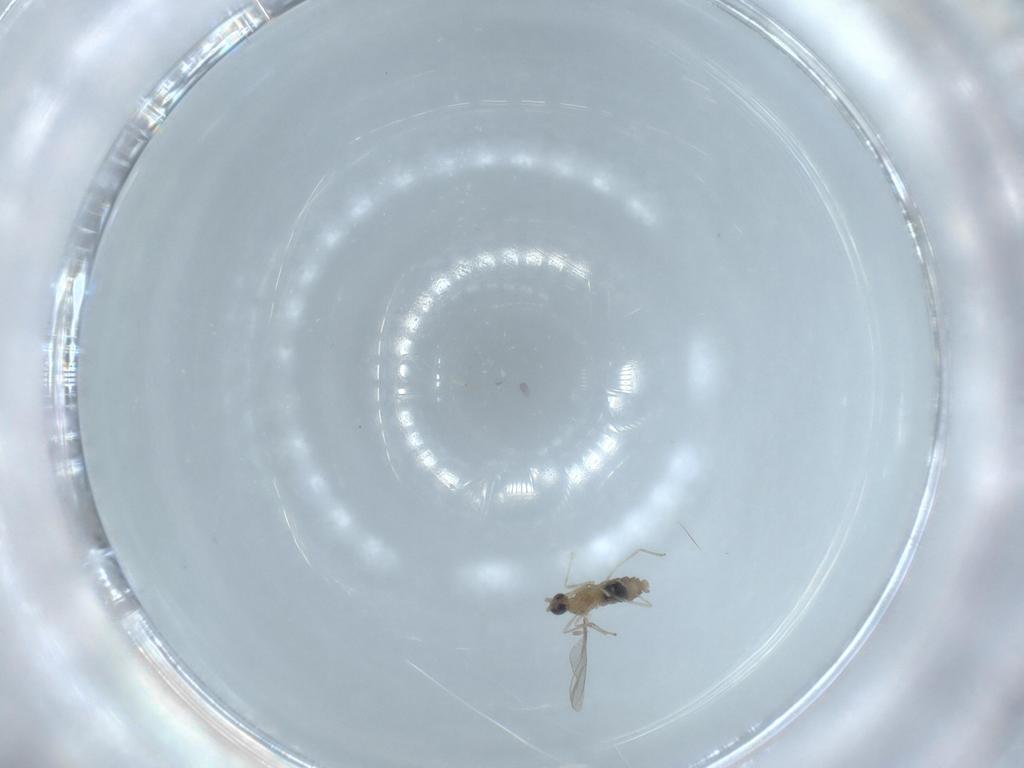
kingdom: Animalia
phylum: Arthropoda
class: Insecta
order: Diptera
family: Cecidomyiidae
